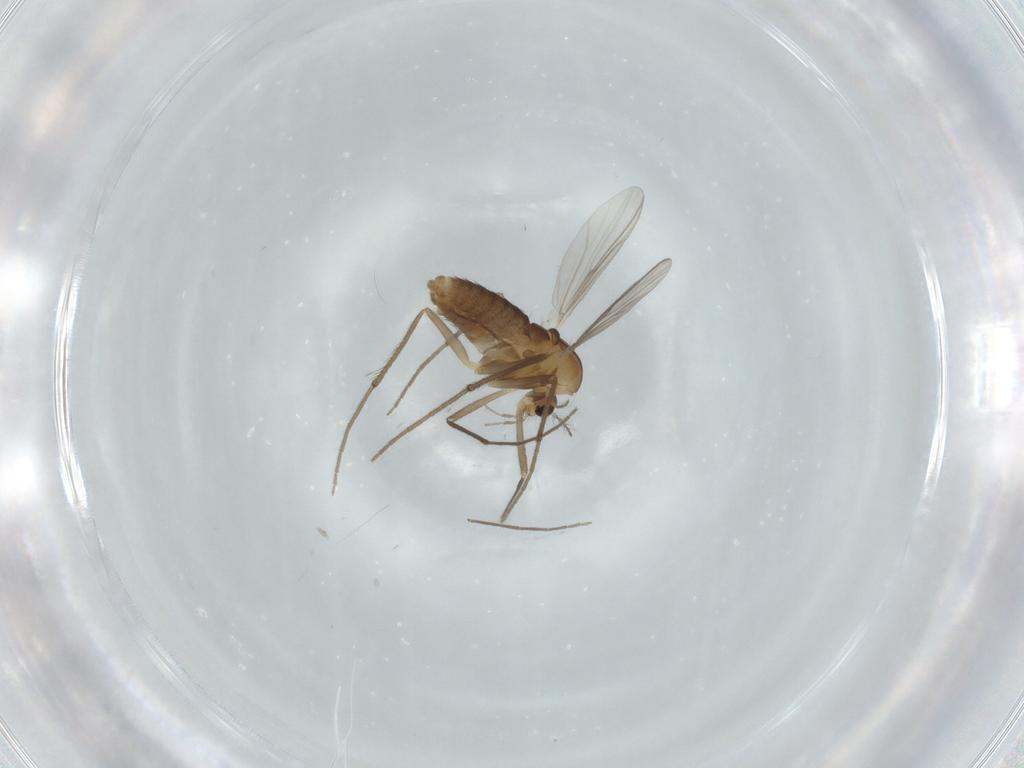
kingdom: Animalia
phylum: Arthropoda
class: Insecta
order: Diptera
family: Chironomidae
